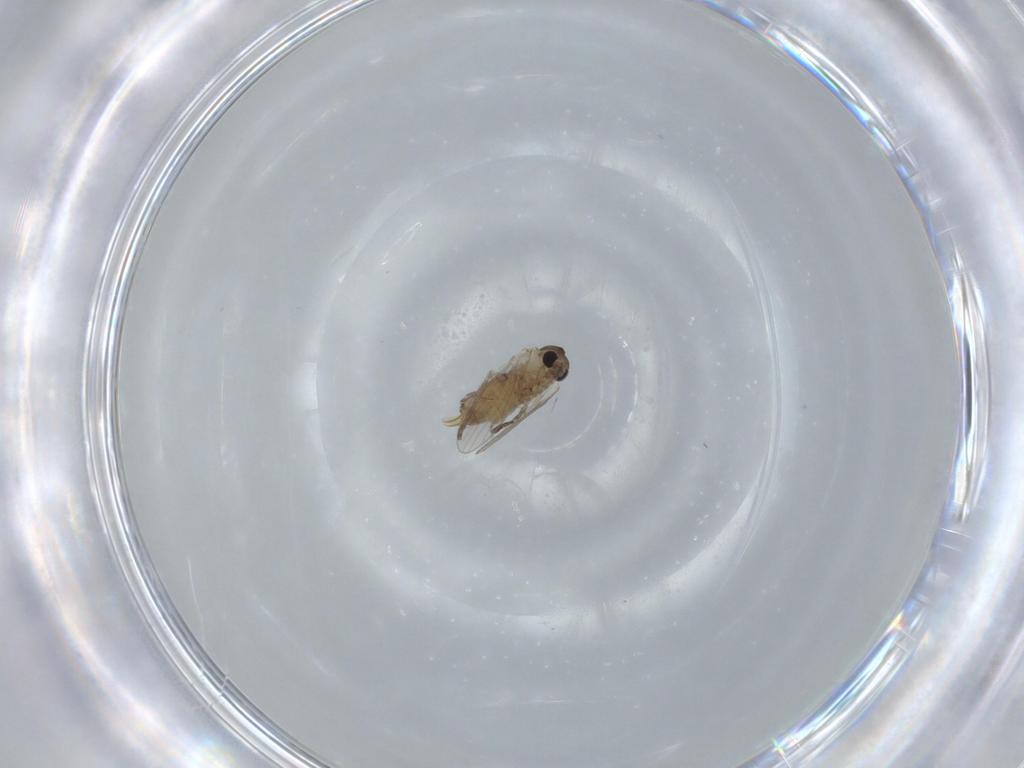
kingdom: Animalia
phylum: Arthropoda
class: Insecta
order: Diptera
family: Psychodidae
